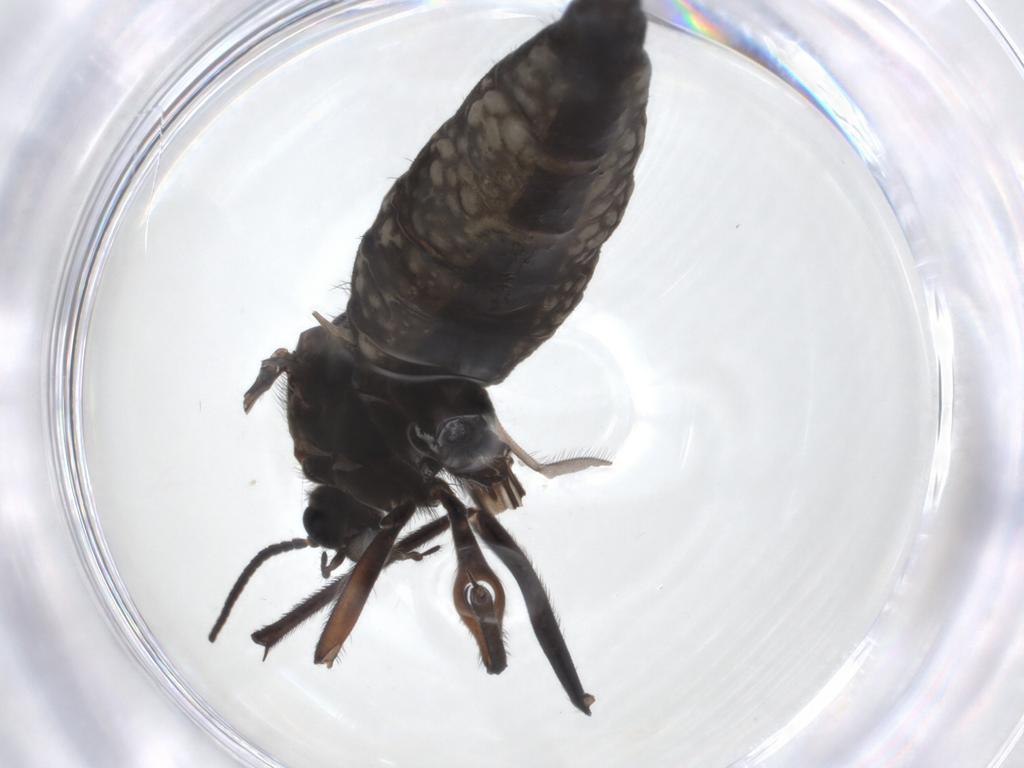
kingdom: Animalia
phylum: Arthropoda
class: Insecta
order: Diptera
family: Sciaridae
